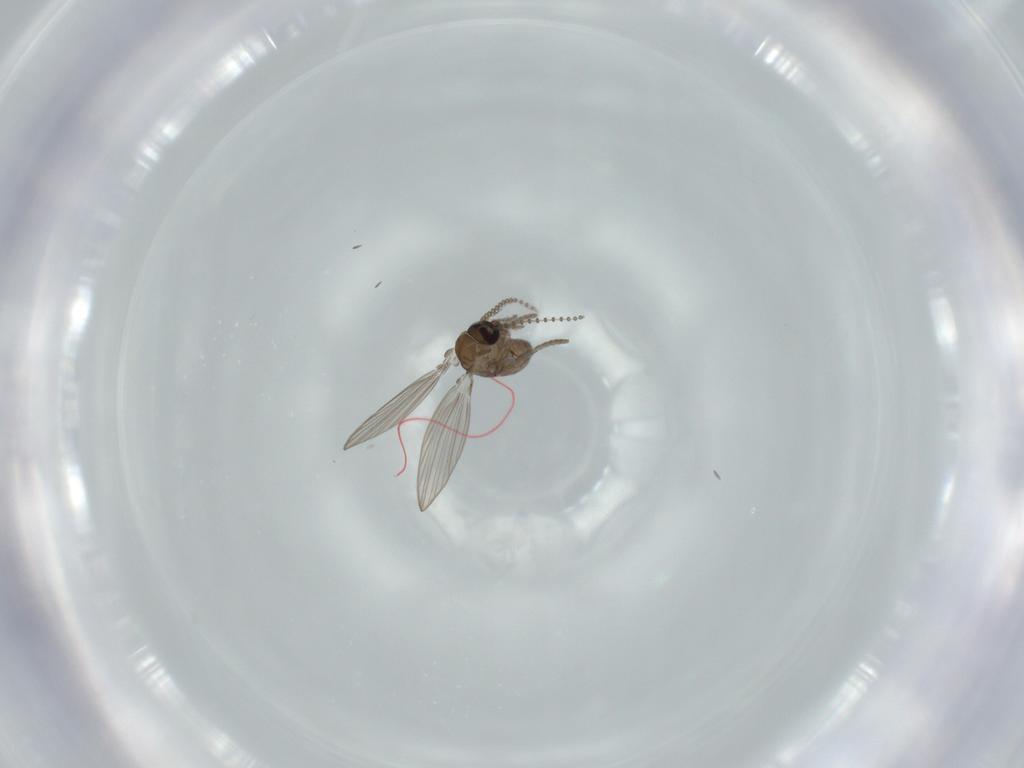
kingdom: Animalia
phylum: Arthropoda
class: Insecta
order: Diptera
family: Psychodidae
